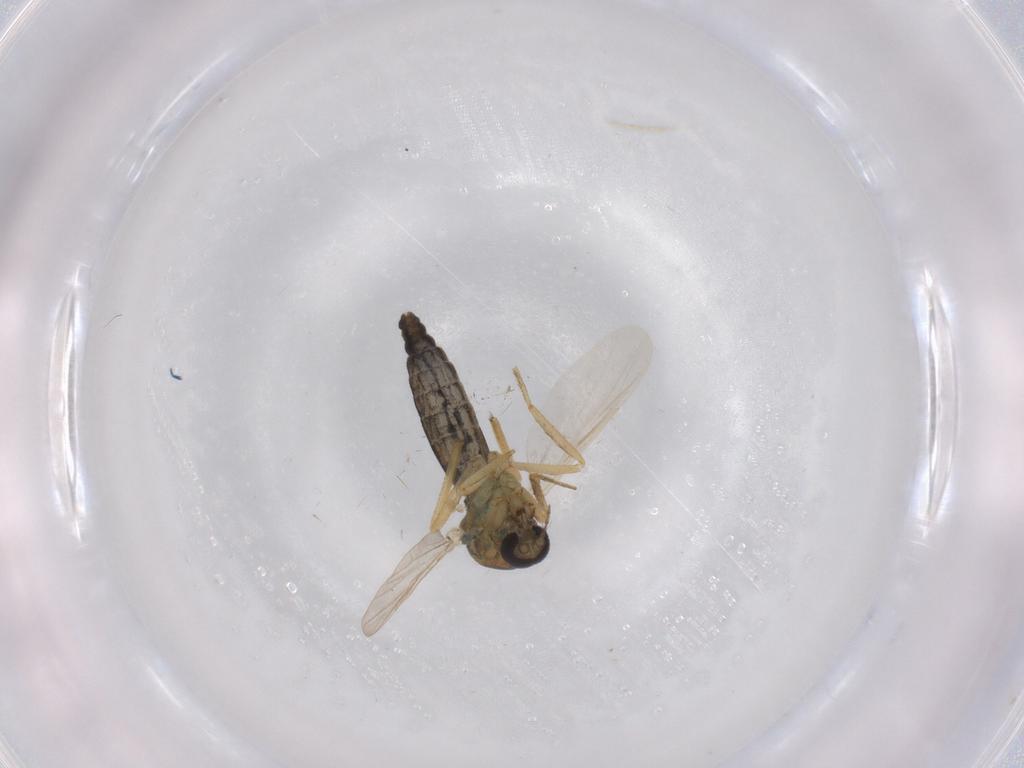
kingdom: Animalia
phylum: Arthropoda
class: Insecta
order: Diptera
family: Ceratopogonidae
